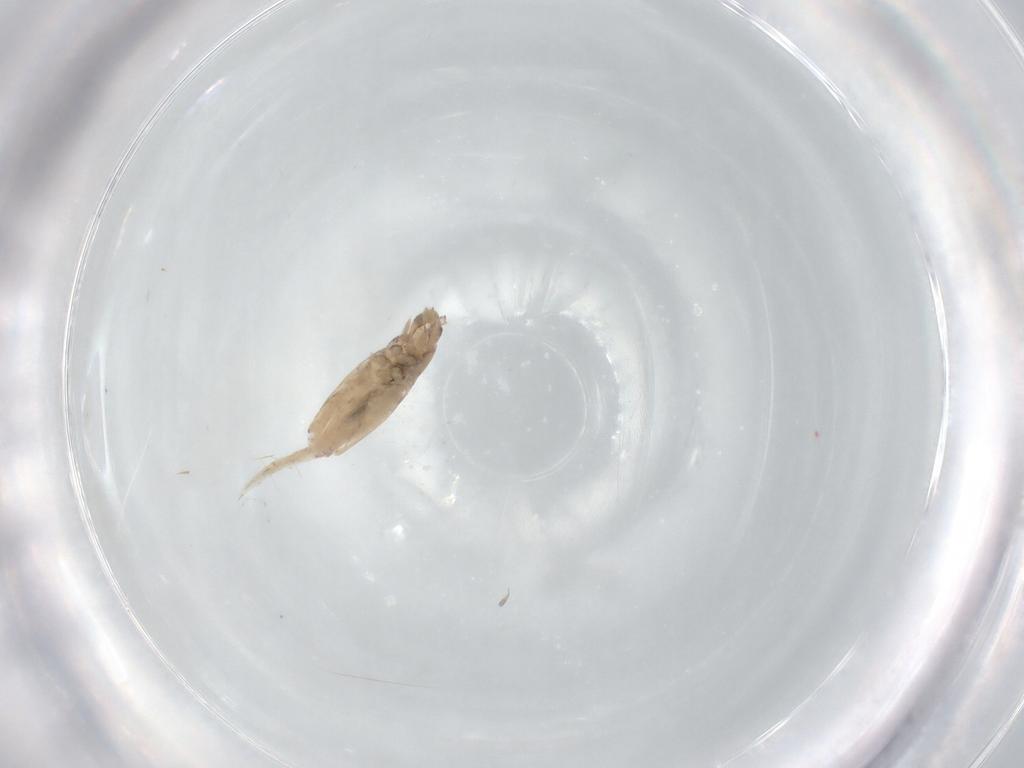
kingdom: Animalia
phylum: Arthropoda
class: Collembola
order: Entomobryomorpha
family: Entomobryidae
